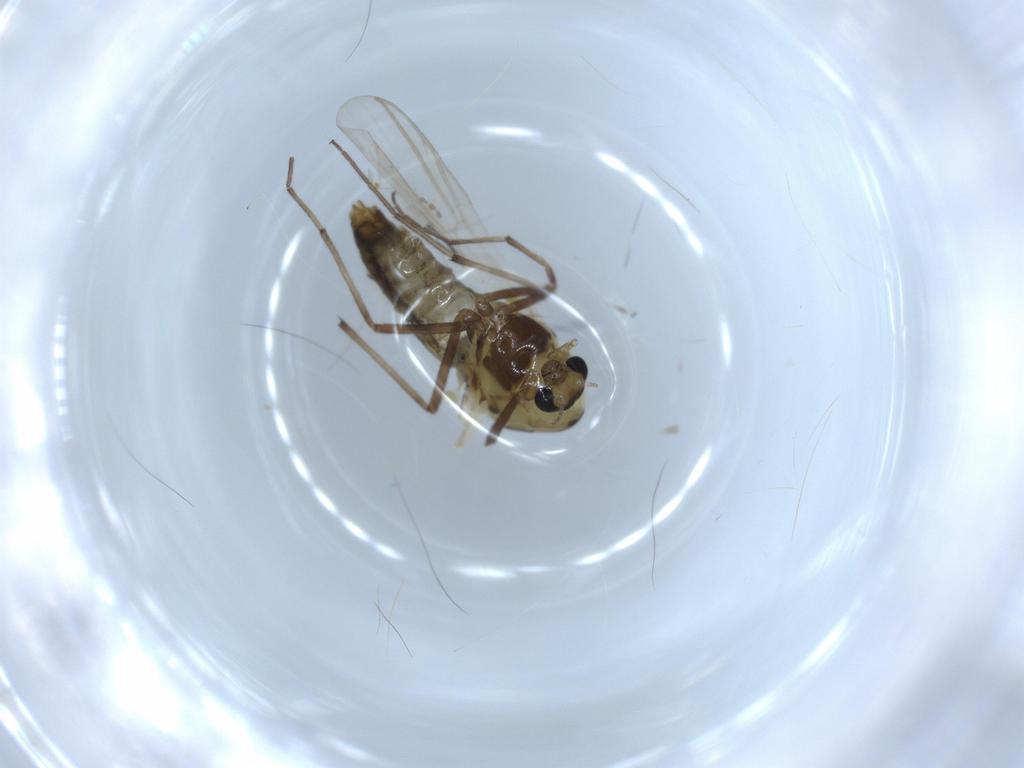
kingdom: Animalia
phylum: Arthropoda
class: Insecta
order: Diptera
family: Chironomidae
